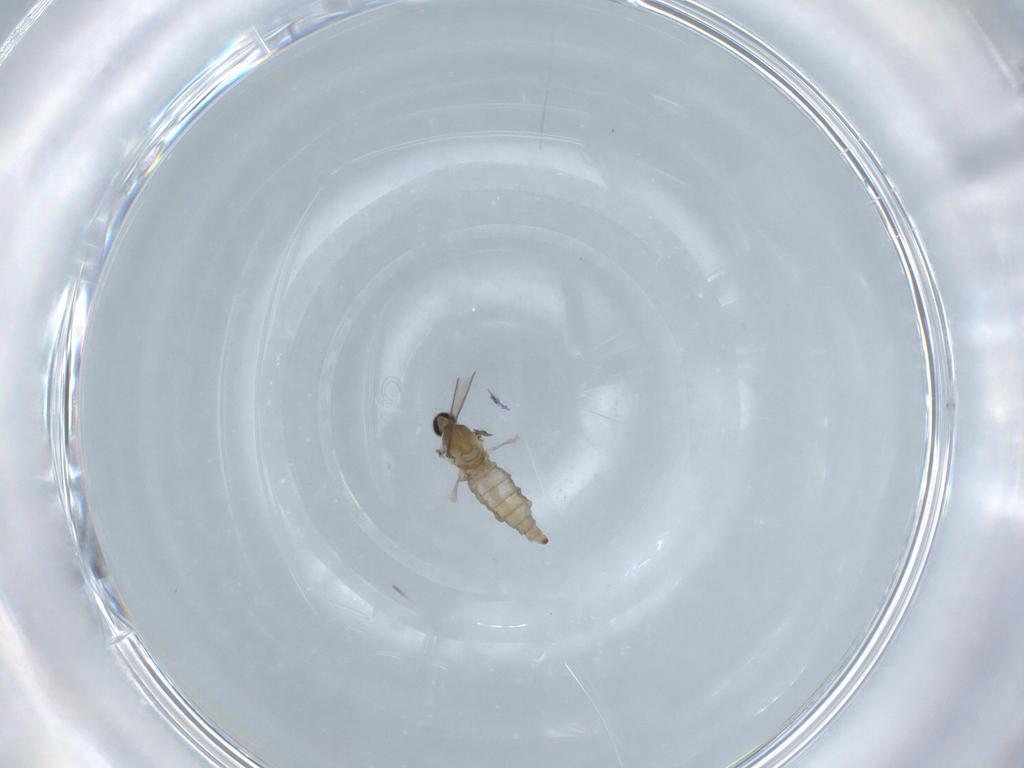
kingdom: Animalia
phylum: Arthropoda
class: Insecta
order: Diptera
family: Cecidomyiidae
